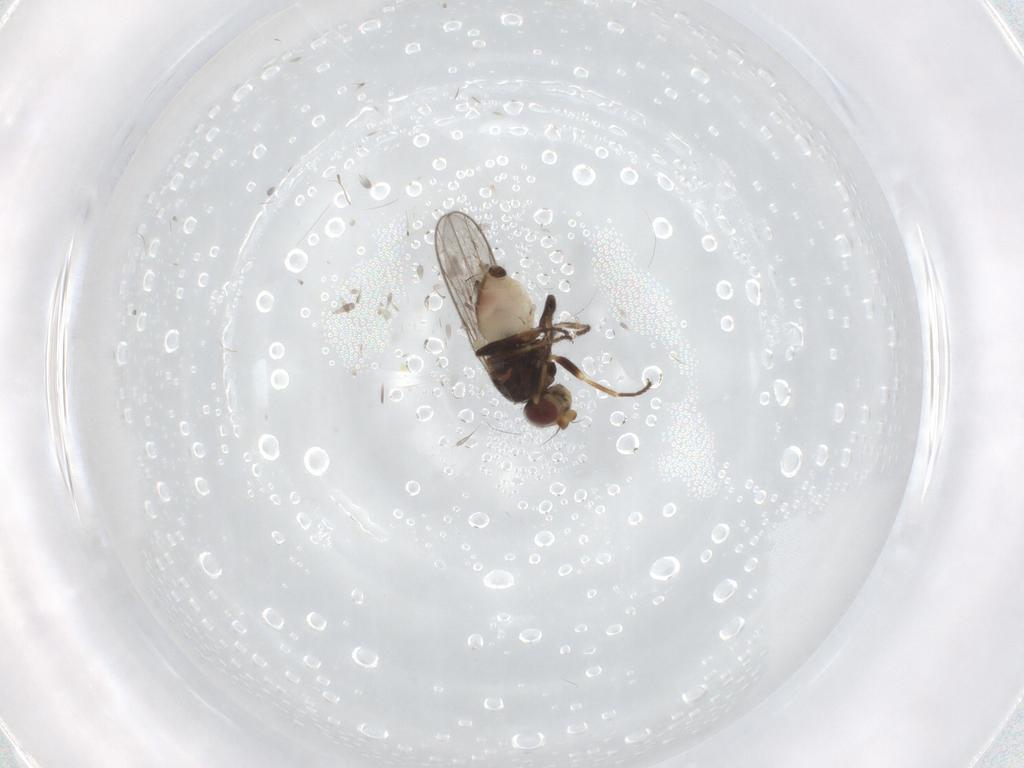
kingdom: Animalia
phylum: Arthropoda
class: Insecta
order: Diptera
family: Chloropidae
